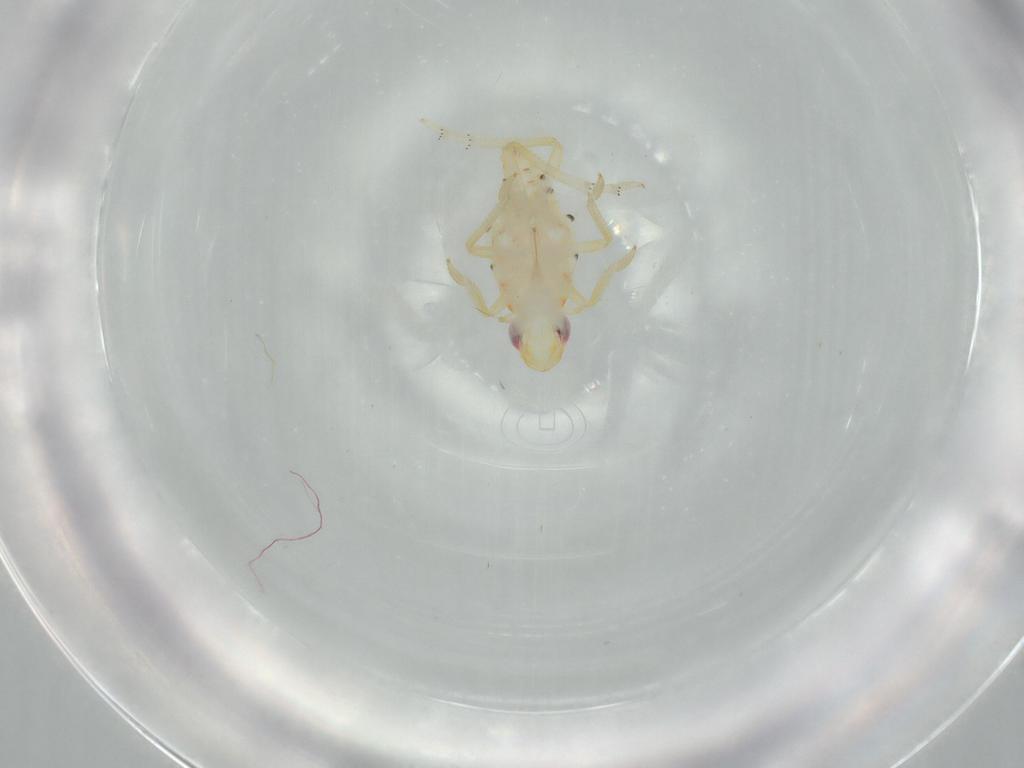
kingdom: Animalia
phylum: Arthropoda
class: Insecta
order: Hemiptera
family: Tropiduchidae
